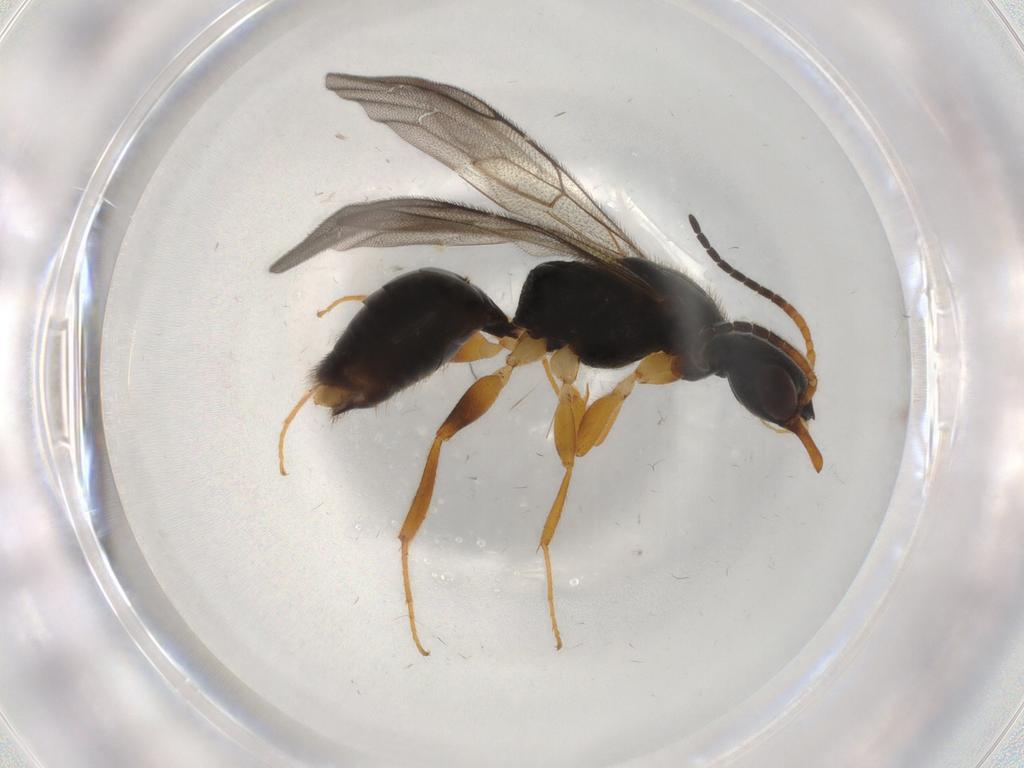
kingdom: Animalia
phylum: Arthropoda
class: Insecta
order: Hymenoptera
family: Bethylidae
